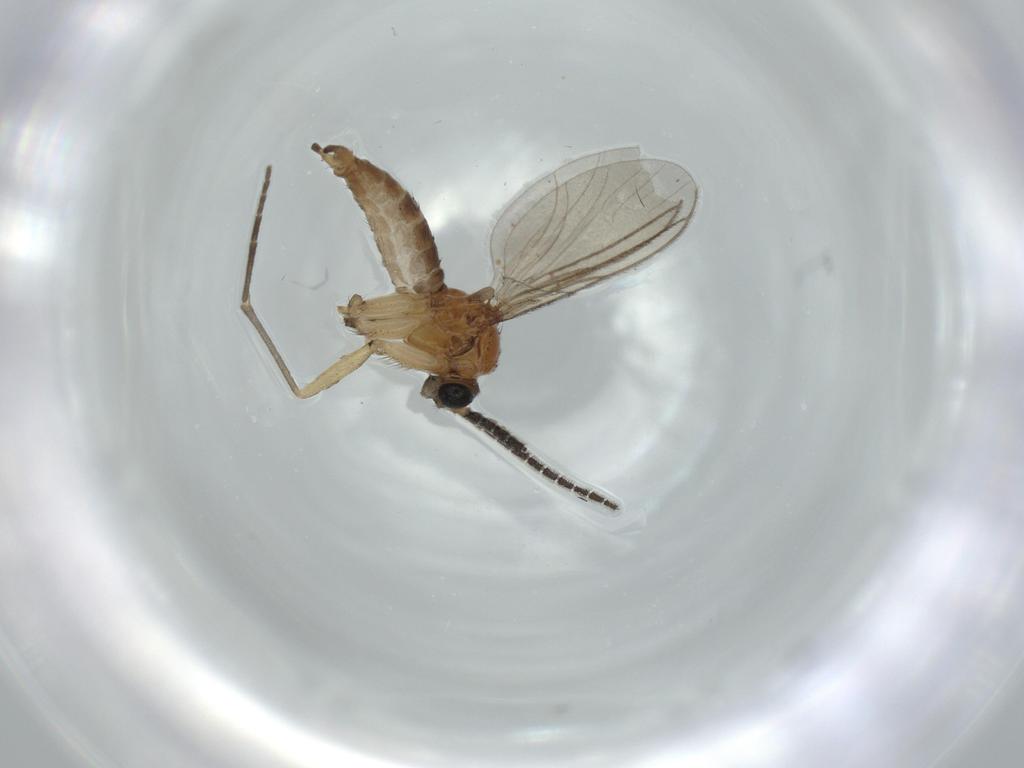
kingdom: Animalia
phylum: Arthropoda
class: Insecta
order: Diptera
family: Sciaridae
